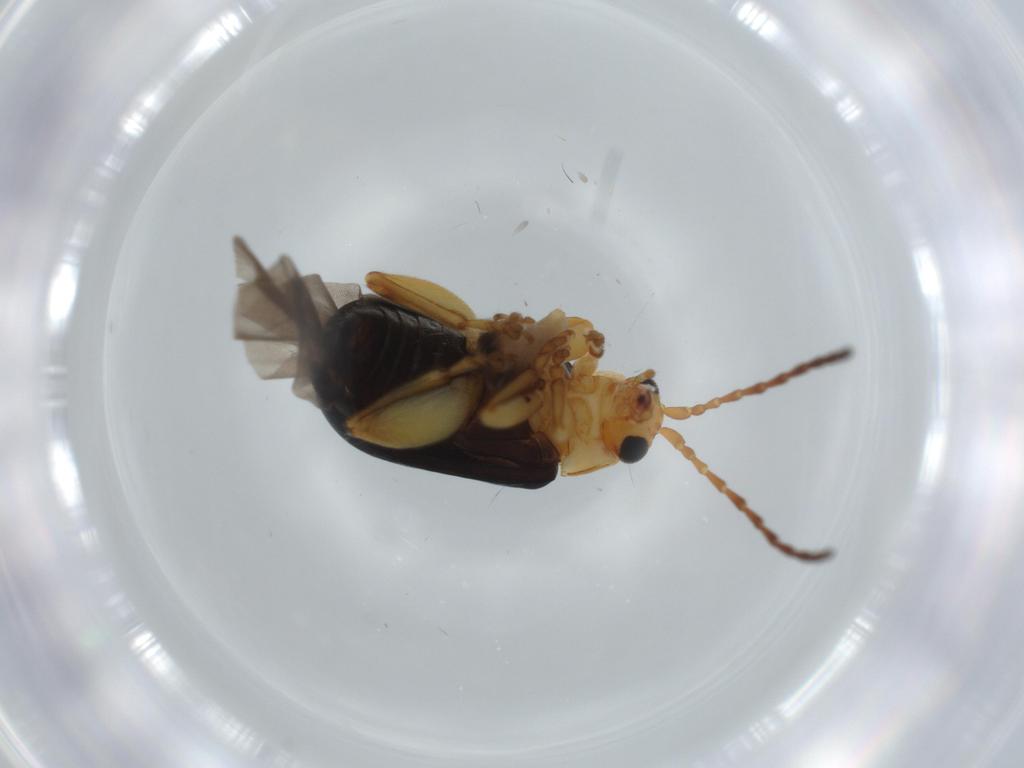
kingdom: Animalia
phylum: Arthropoda
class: Insecta
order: Coleoptera
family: Chrysomelidae
